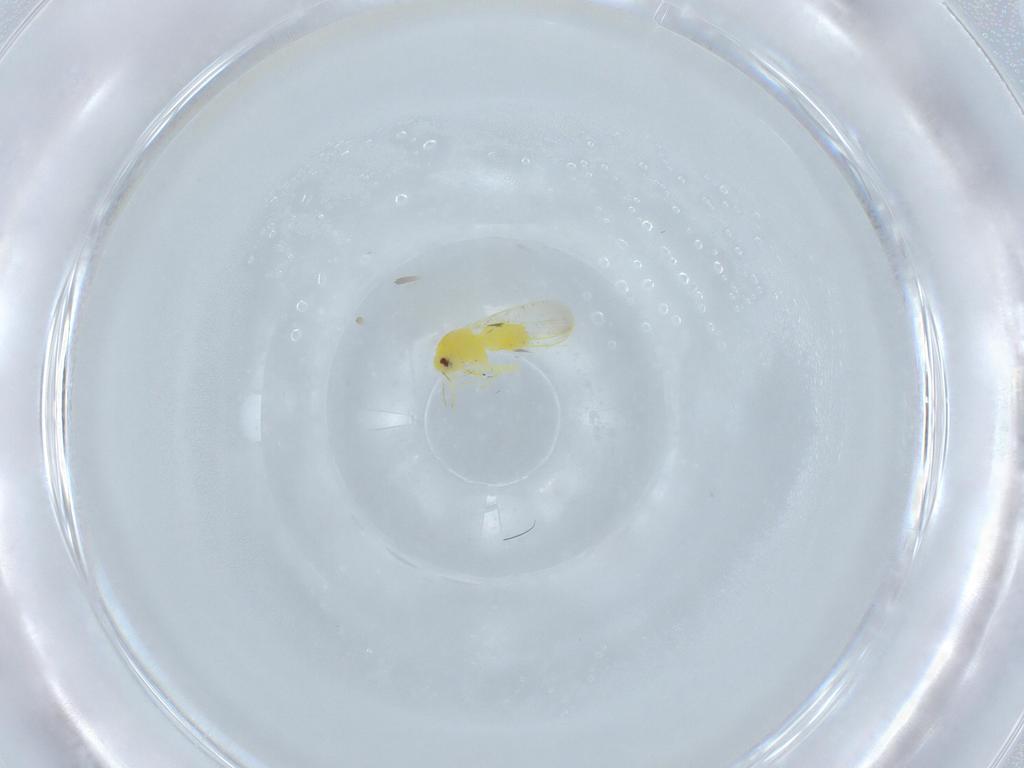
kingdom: Animalia
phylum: Arthropoda
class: Insecta
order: Hemiptera
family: Aleyrodidae
